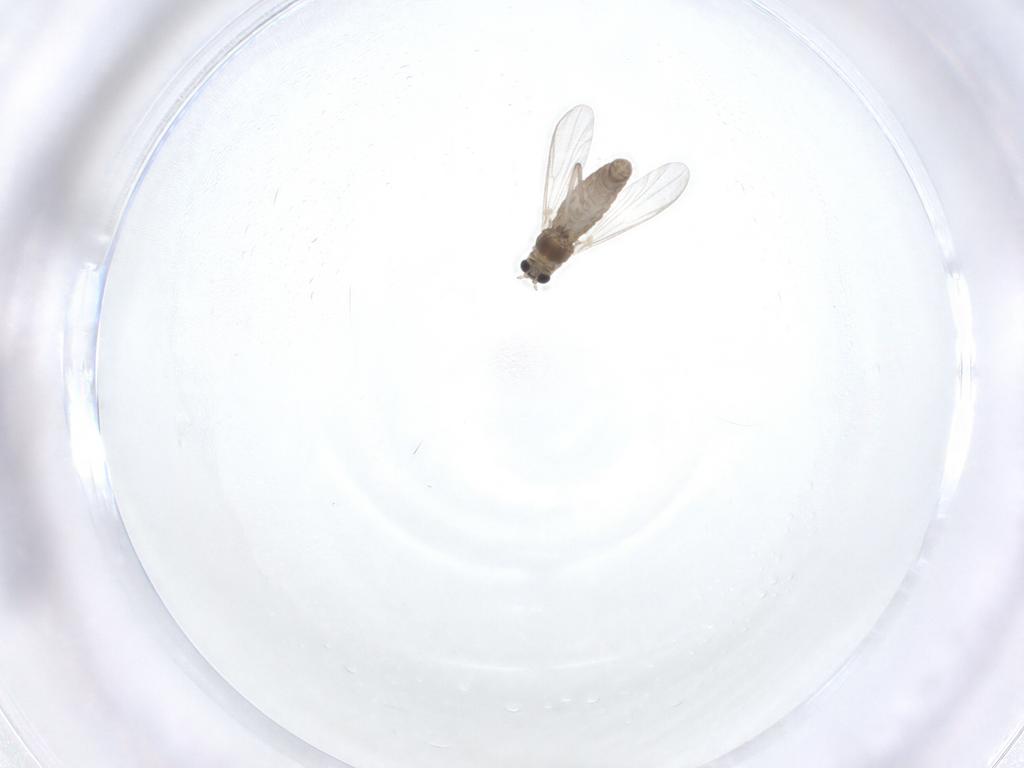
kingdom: Animalia
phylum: Arthropoda
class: Insecta
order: Diptera
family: Chironomidae
